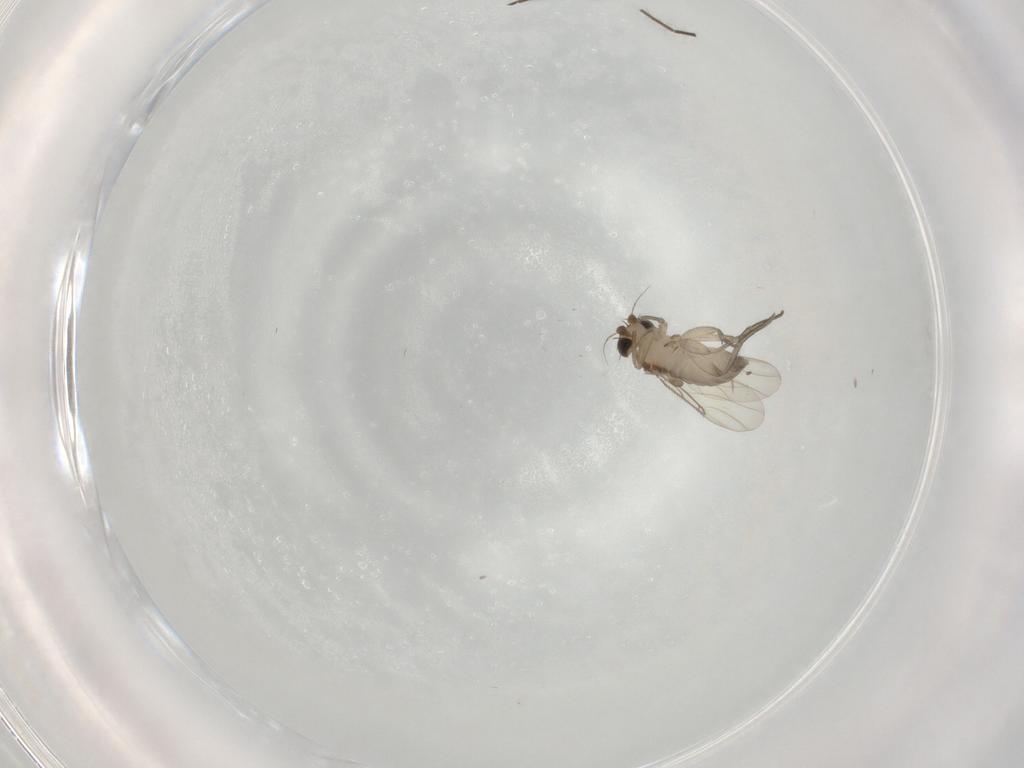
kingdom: Animalia
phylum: Arthropoda
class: Insecta
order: Diptera
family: Phoridae
